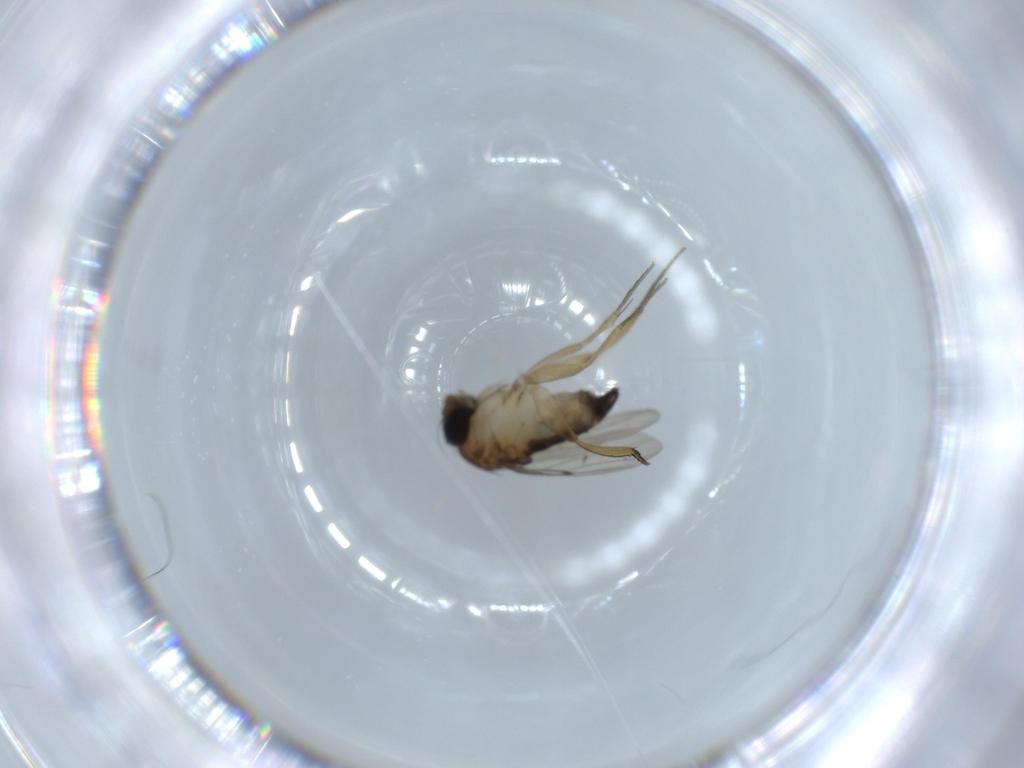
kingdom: Animalia
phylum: Arthropoda
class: Insecta
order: Diptera
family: Phoridae
